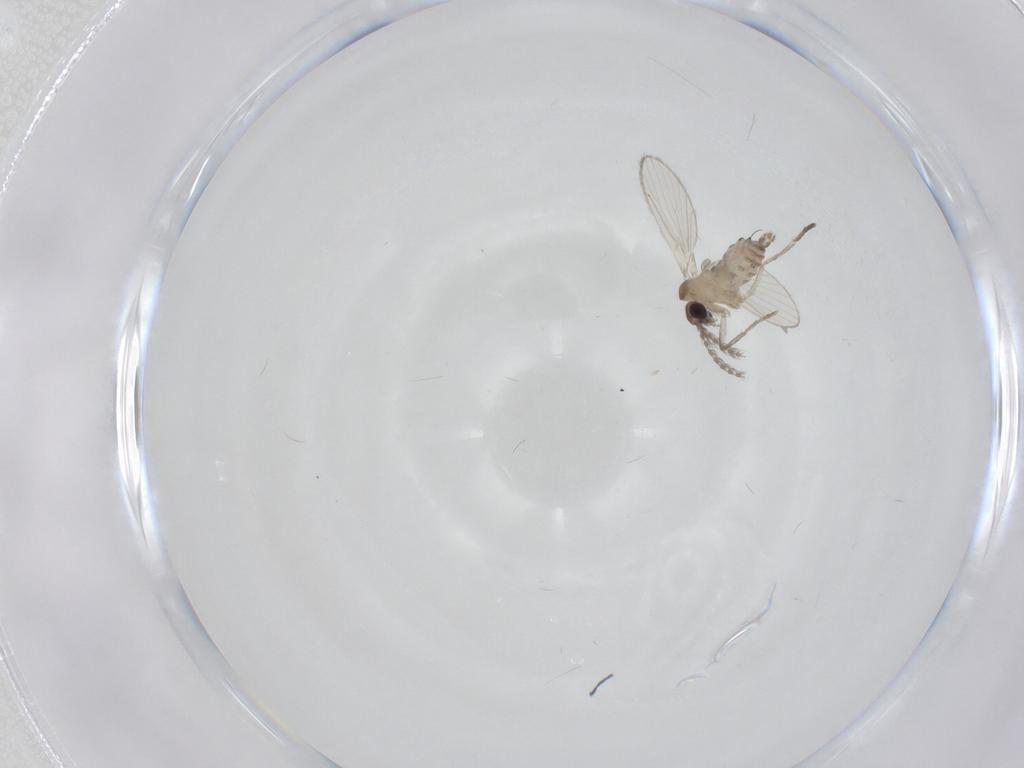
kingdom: Animalia
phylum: Arthropoda
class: Insecta
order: Diptera
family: Psychodidae
